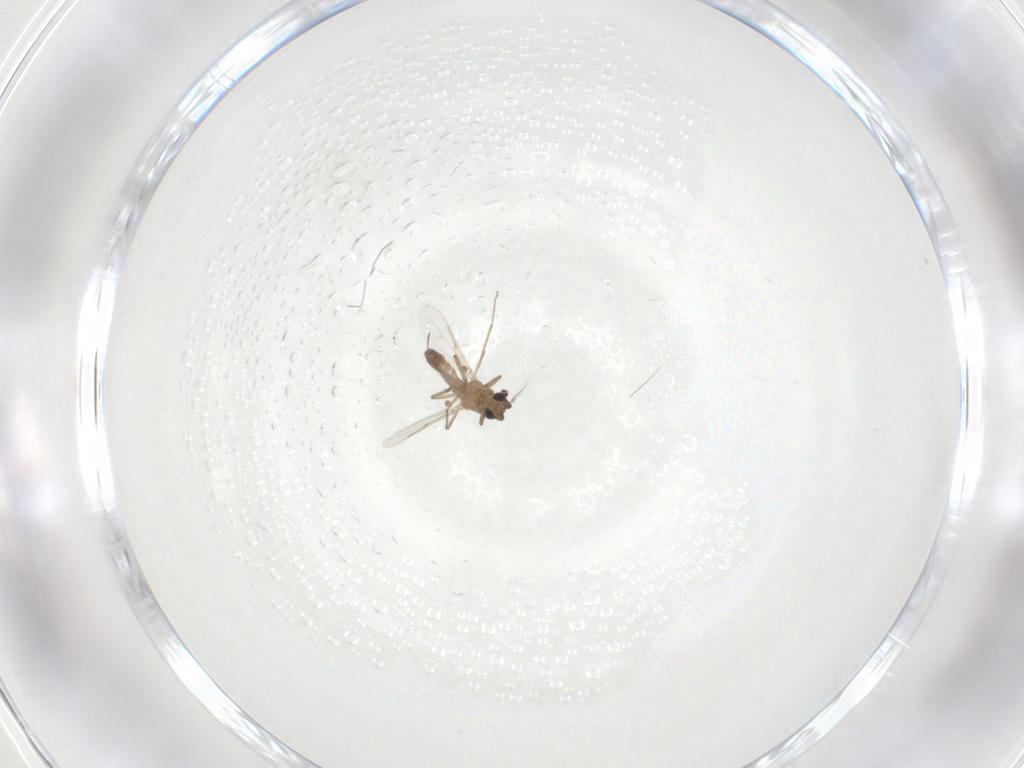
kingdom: Animalia
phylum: Arthropoda
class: Insecta
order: Diptera
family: Ceratopogonidae
